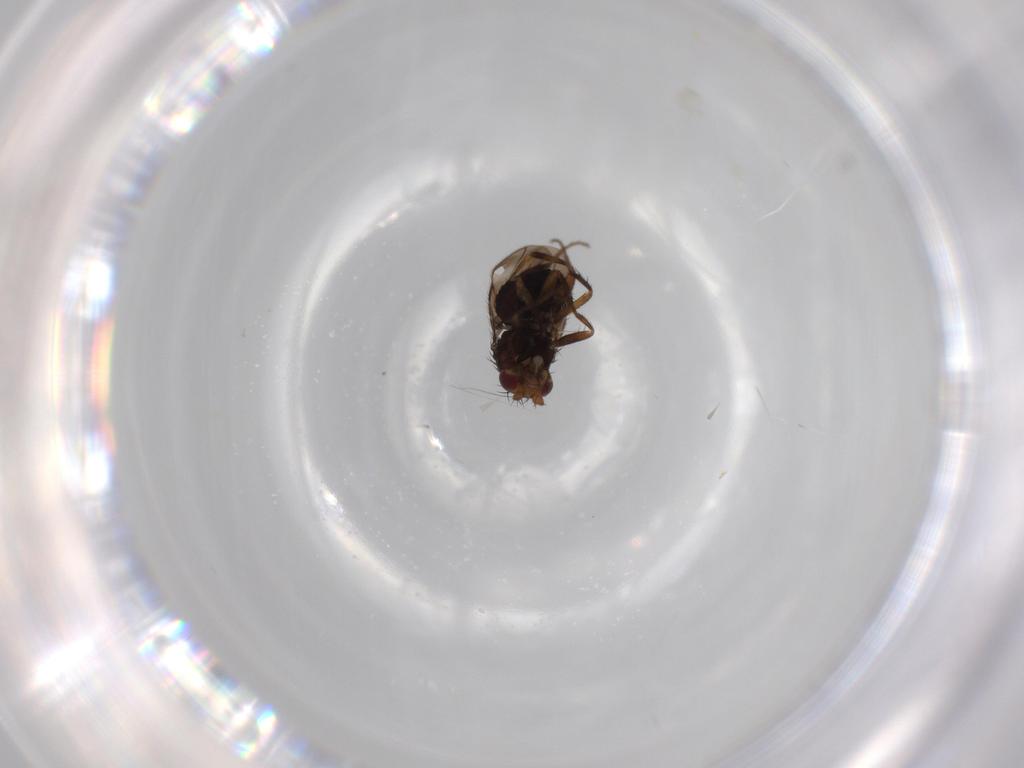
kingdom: Animalia
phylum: Arthropoda
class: Insecta
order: Diptera
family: Sphaeroceridae
